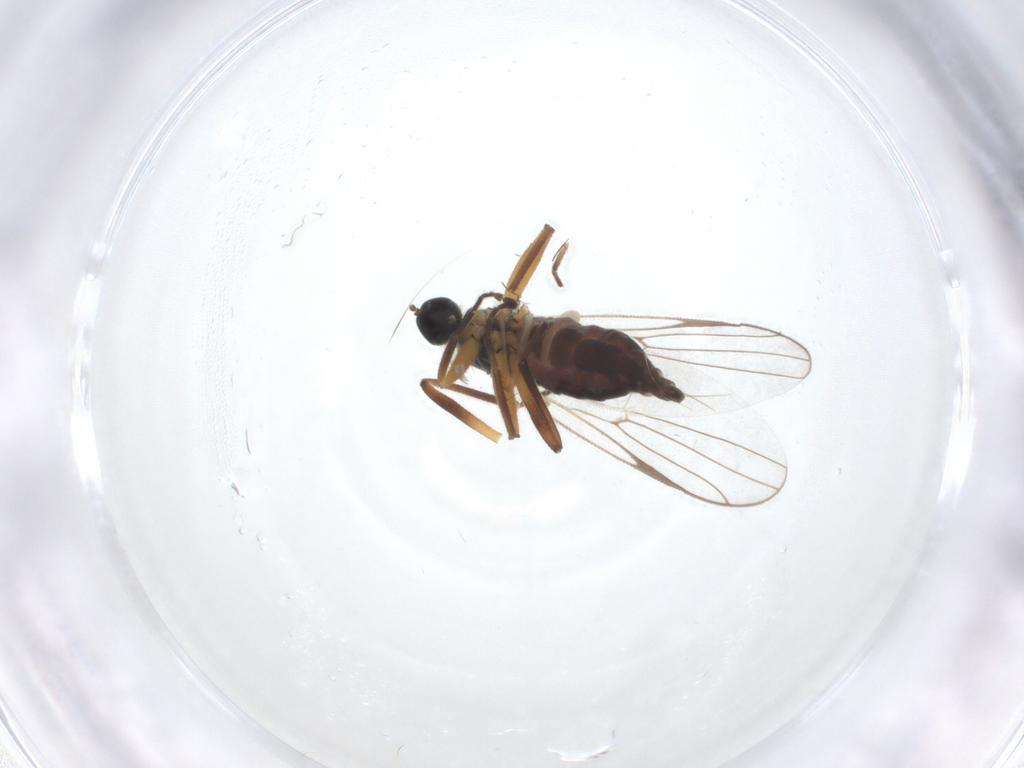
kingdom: Animalia
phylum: Arthropoda
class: Insecta
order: Diptera
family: Hybotidae
